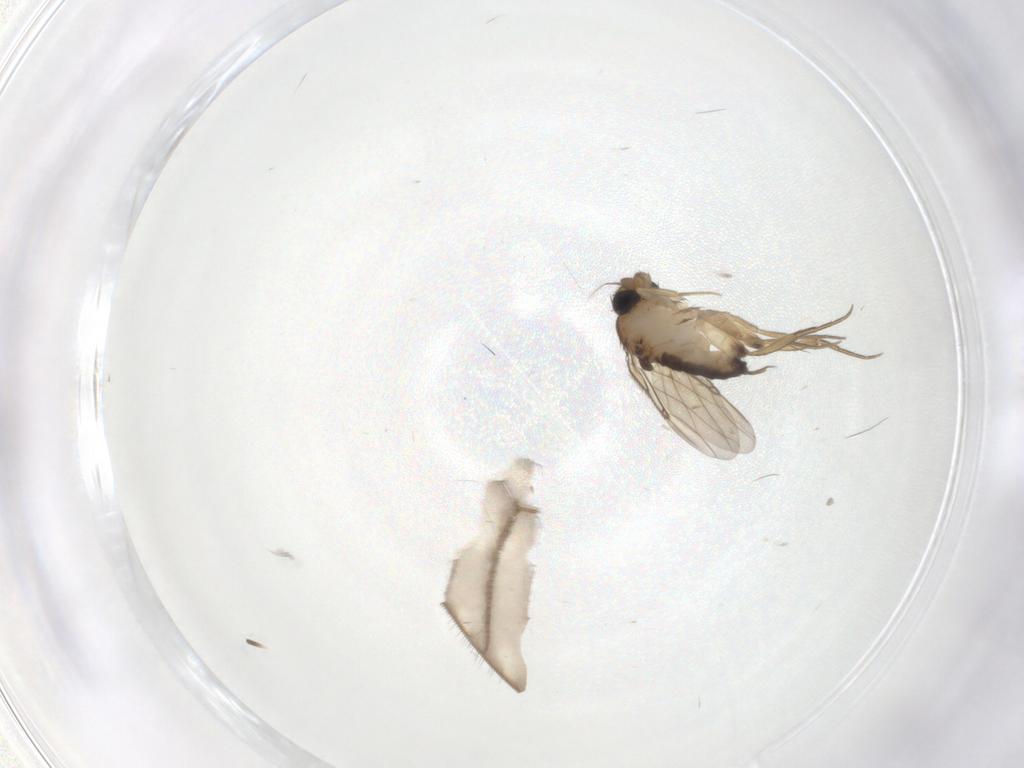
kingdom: Animalia
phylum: Arthropoda
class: Insecta
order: Diptera
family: Phoridae
